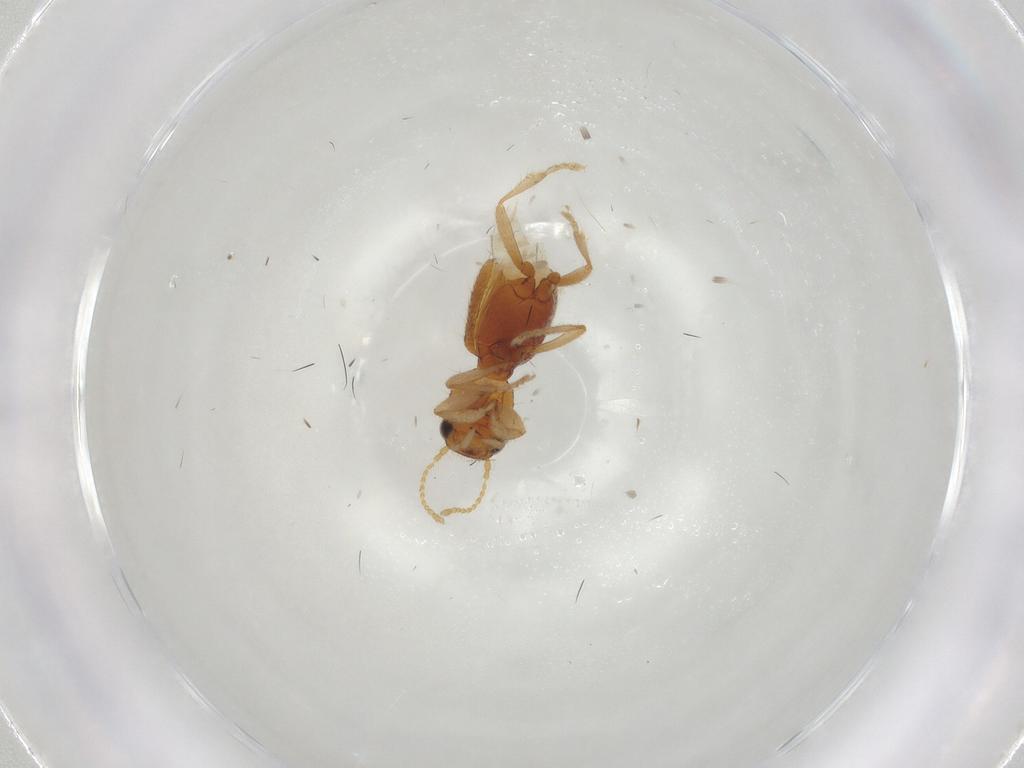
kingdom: Animalia
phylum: Arthropoda
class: Insecta
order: Coleoptera
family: Staphylinidae
